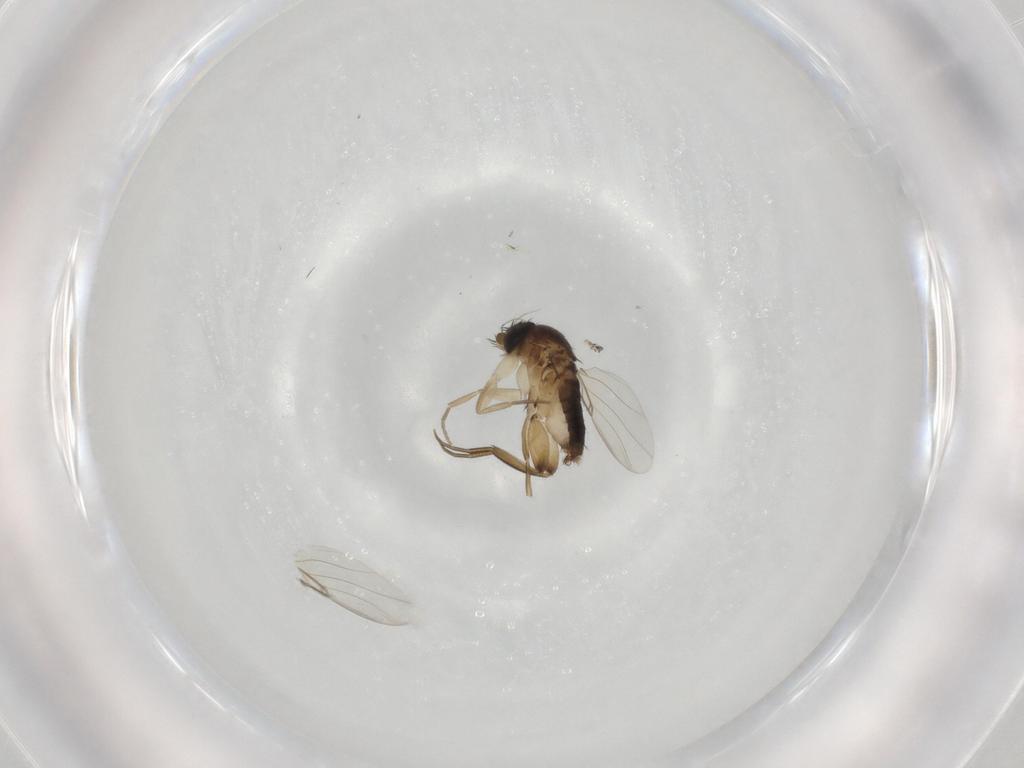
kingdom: Animalia
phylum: Arthropoda
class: Insecta
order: Diptera
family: Phoridae
